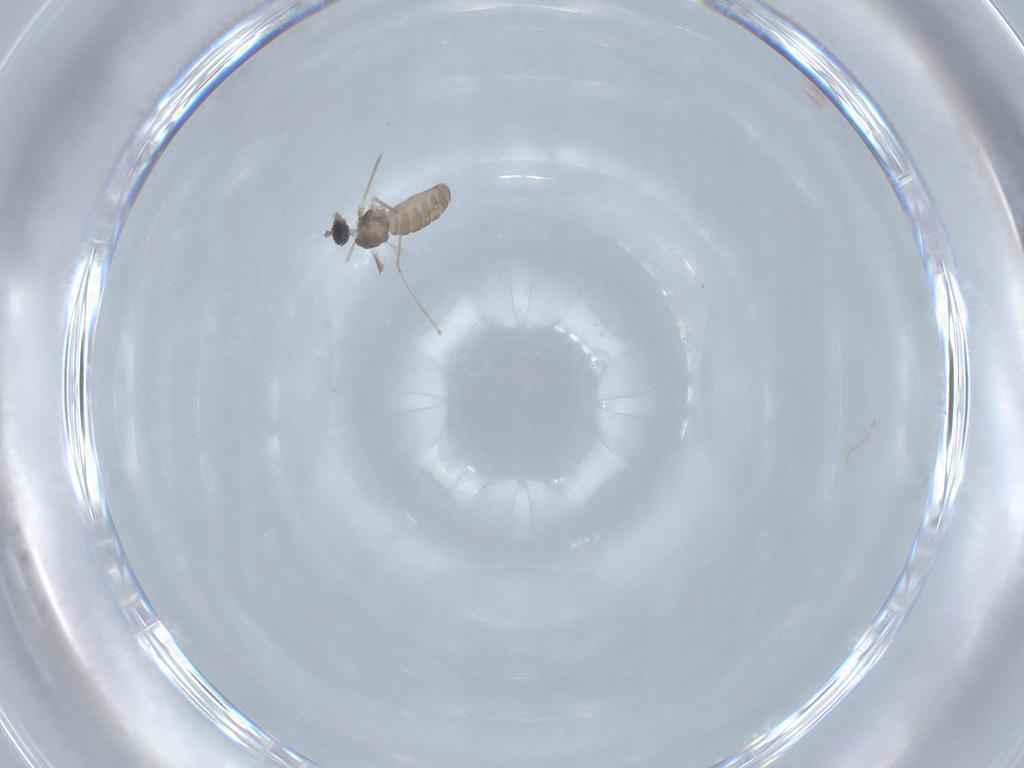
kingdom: Animalia
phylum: Arthropoda
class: Insecta
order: Diptera
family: Cecidomyiidae
